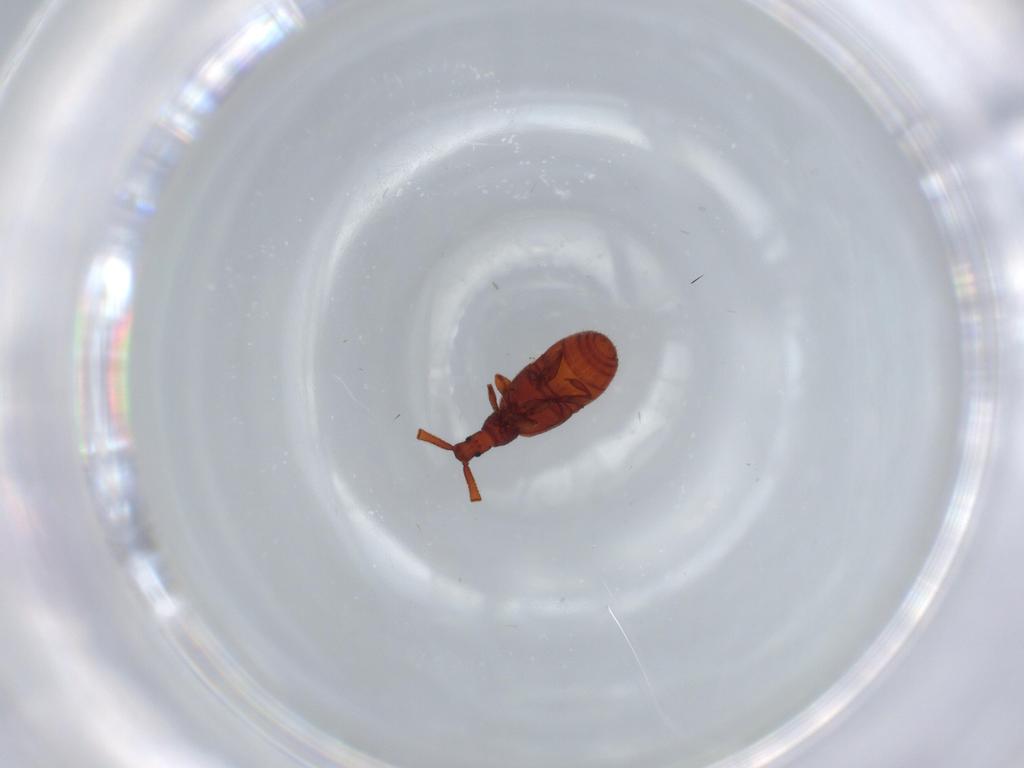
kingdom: Animalia
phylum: Arthropoda
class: Insecta
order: Coleoptera
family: Staphylinidae
